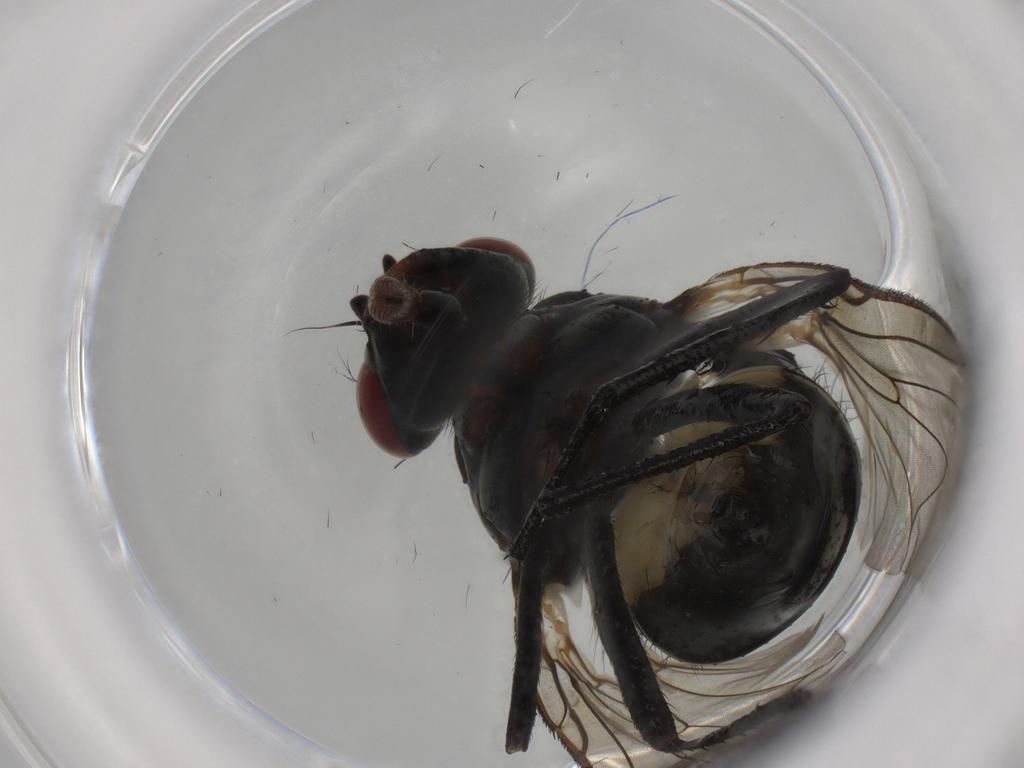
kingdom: Animalia
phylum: Arthropoda
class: Insecta
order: Diptera
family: Anthomyiidae
